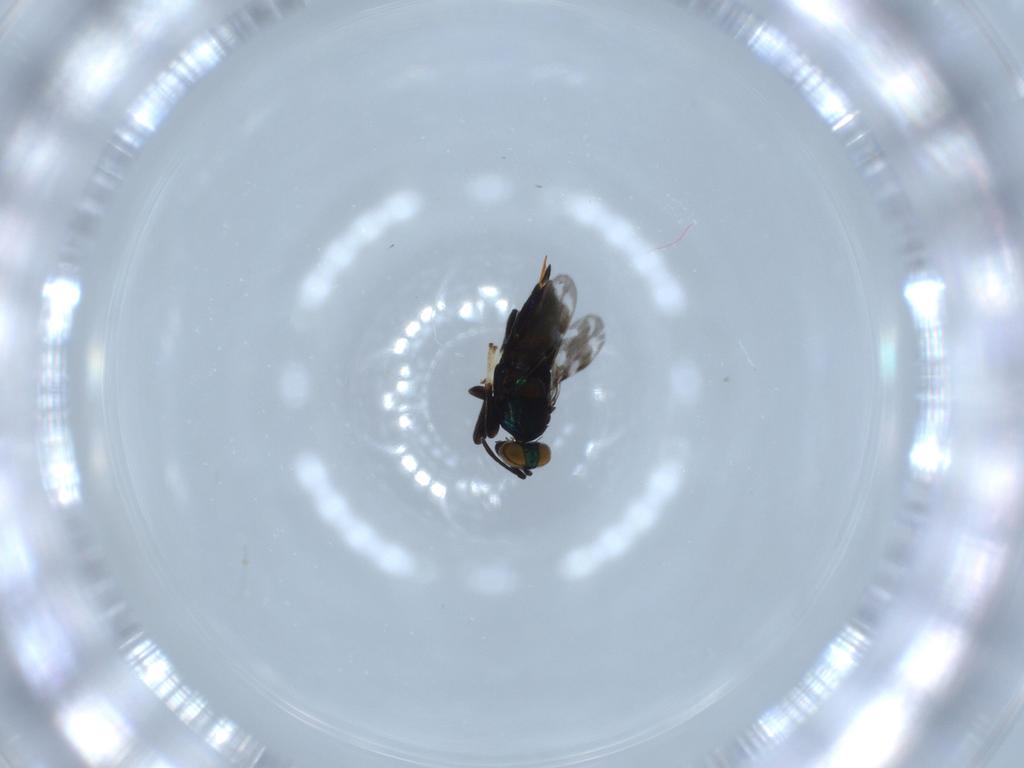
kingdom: Animalia
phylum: Arthropoda
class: Insecta
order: Hymenoptera
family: Encyrtidae
